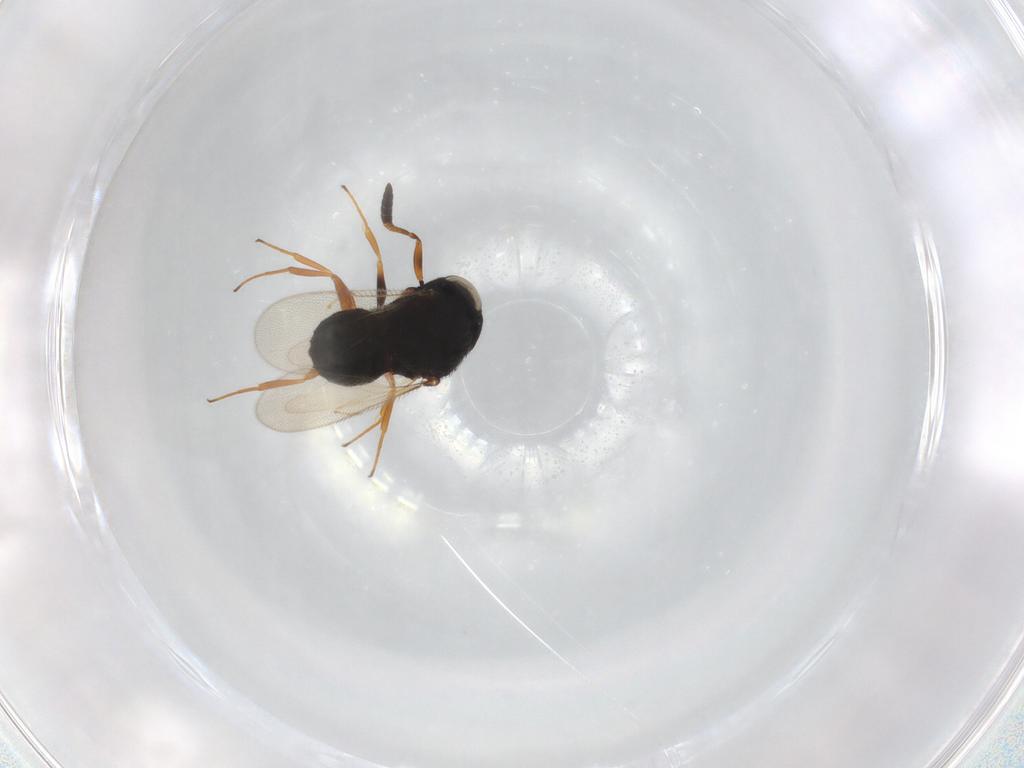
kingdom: Animalia
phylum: Arthropoda
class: Insecta
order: Hymenoptera
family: Scelionidae
